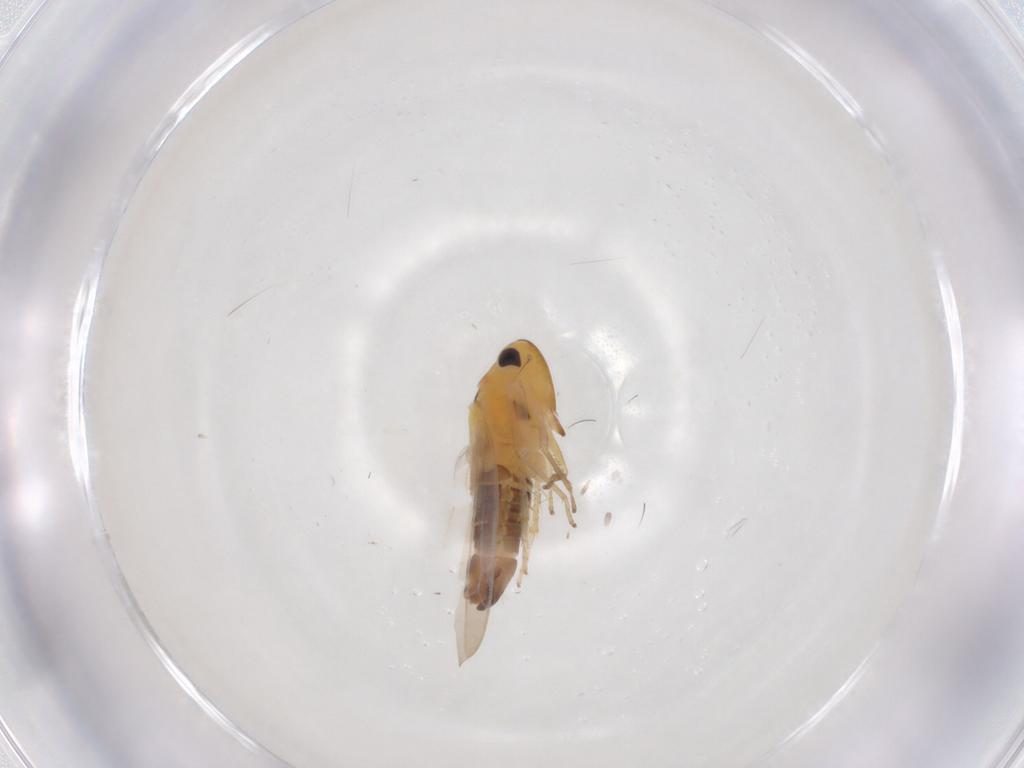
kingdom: Animalia
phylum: Arthropoda
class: Insecta
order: Hemiptera
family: Cicadellidae
